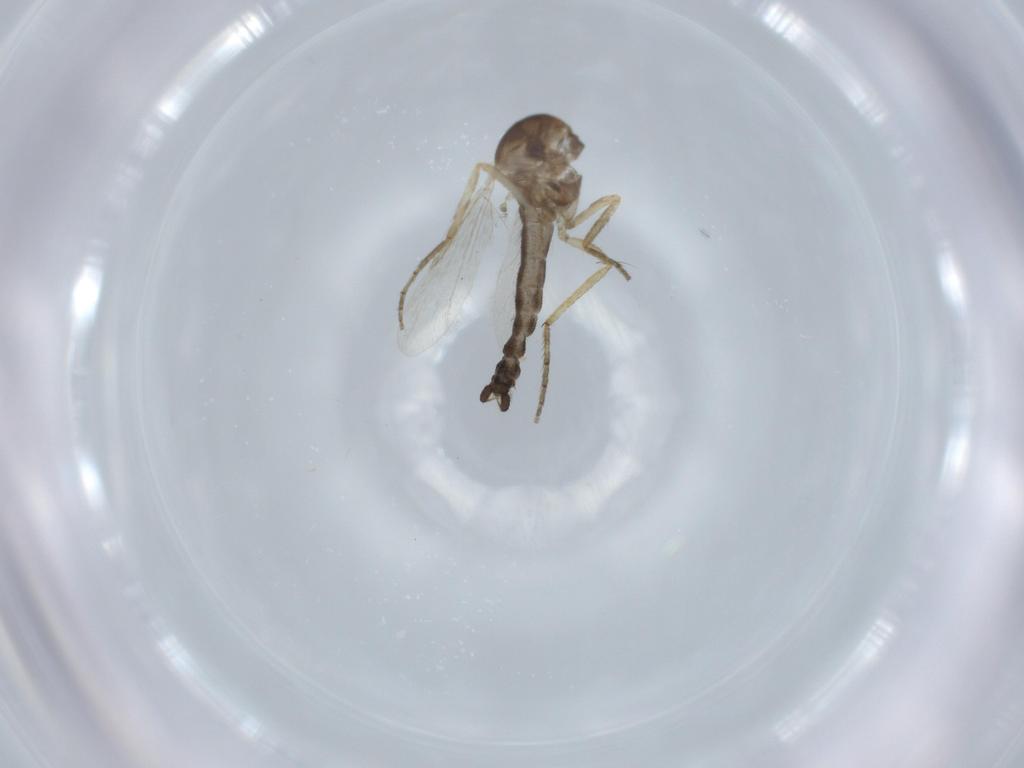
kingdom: Animalia
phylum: Arthropoda
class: Insecta
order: Diptera
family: Ceratopogonidae
